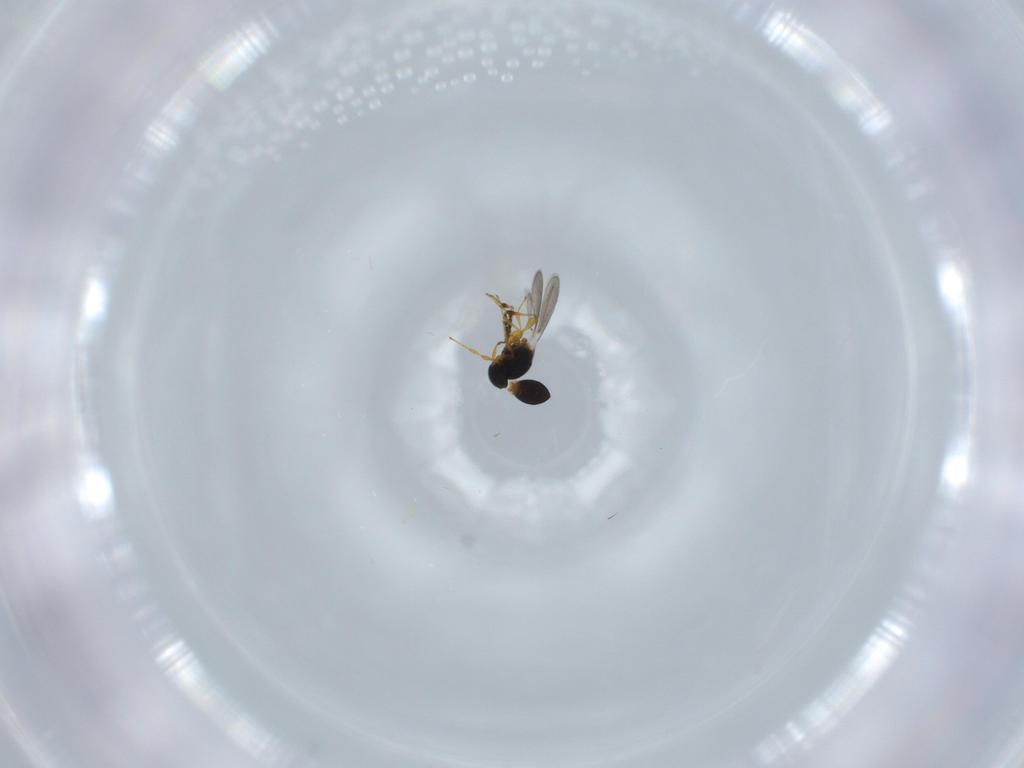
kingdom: Animalia
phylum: Arthropoda
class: Insecta
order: Hymenoptera
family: Platygastridae
